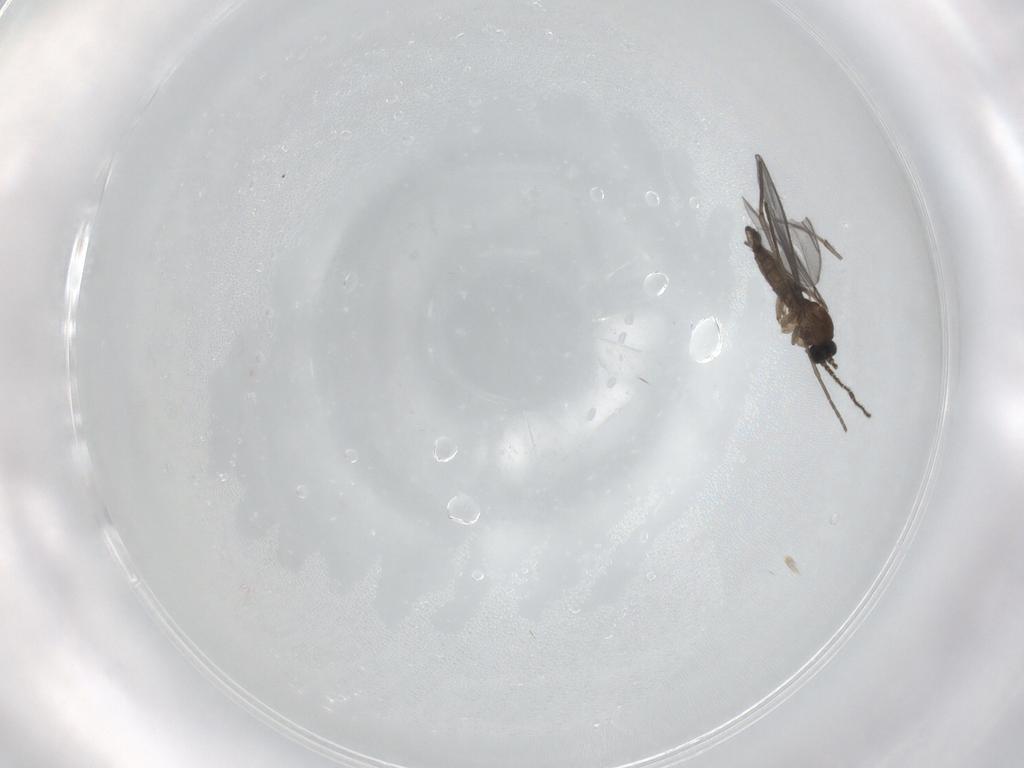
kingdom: Animalia
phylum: Arthropoda
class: Insecta
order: Diptera
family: Sciaridae
